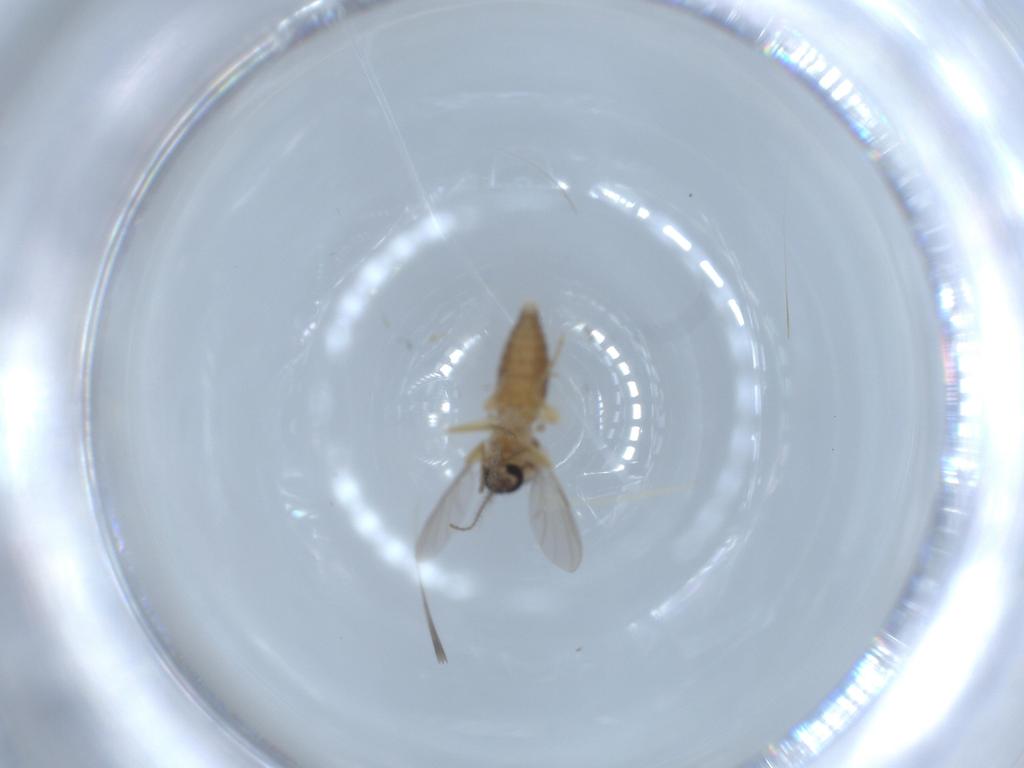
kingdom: Animalia
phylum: Arthropoda
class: Insecta
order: Diptera
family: Ceratopogonidae
